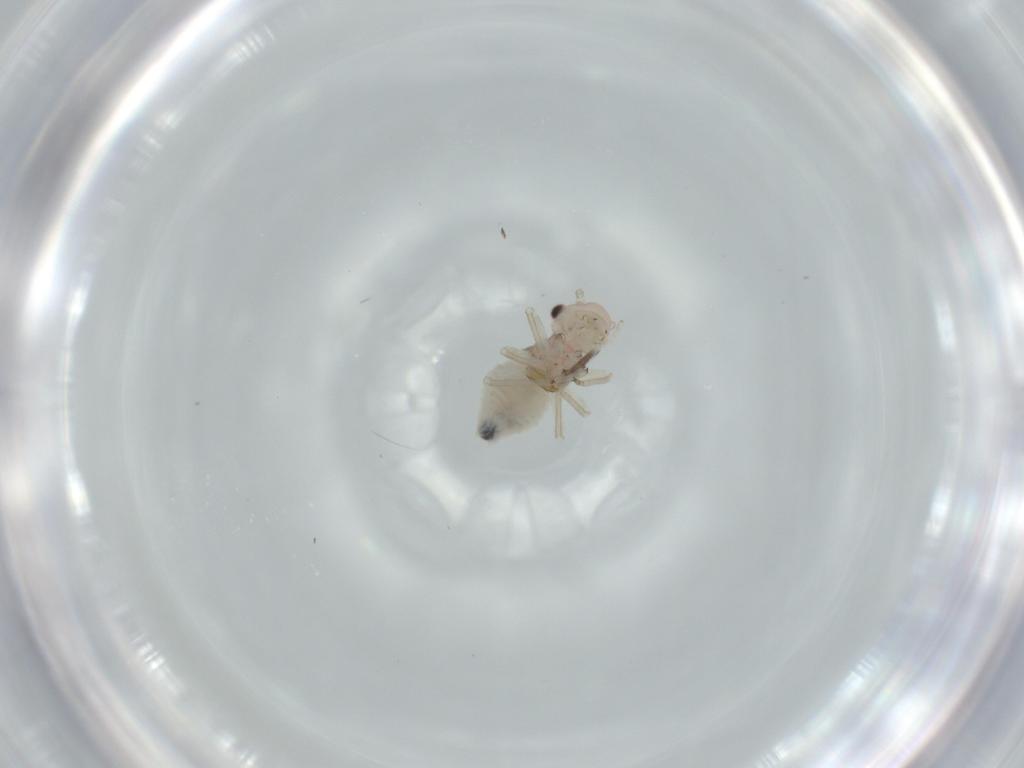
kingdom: Animalia
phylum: Arthropoda
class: Insecta
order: Psocodea
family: Amphipsocidae
